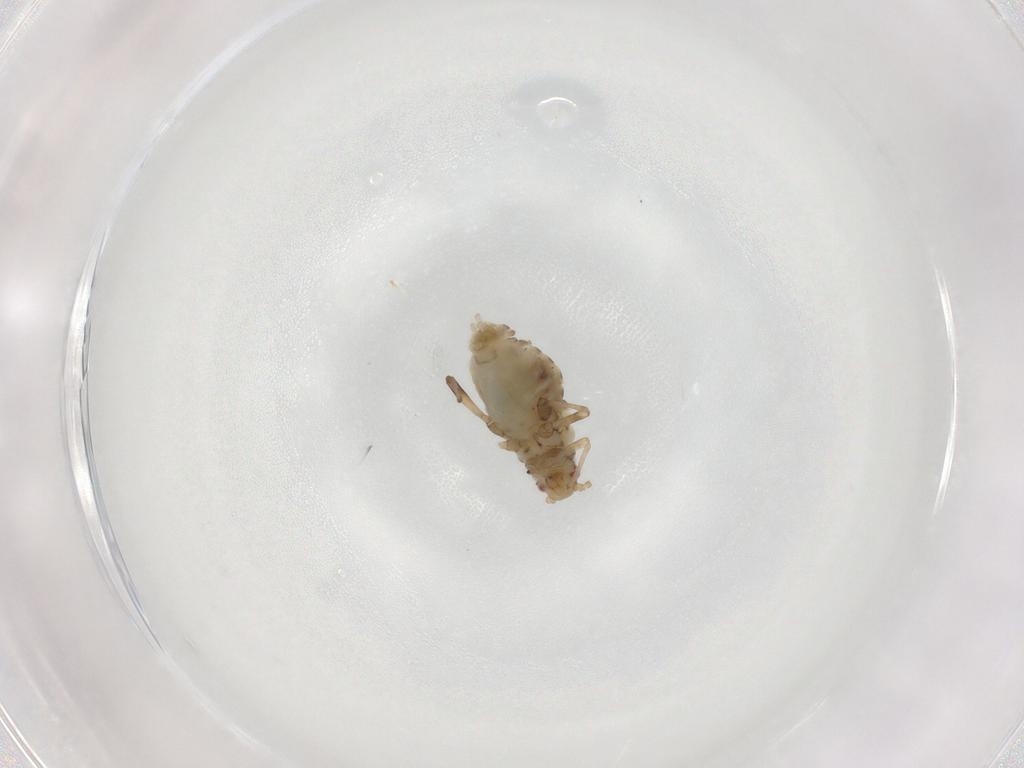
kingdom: Animalia
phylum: Arthropoda
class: Insecta
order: Hemiptera
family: Aphididae
